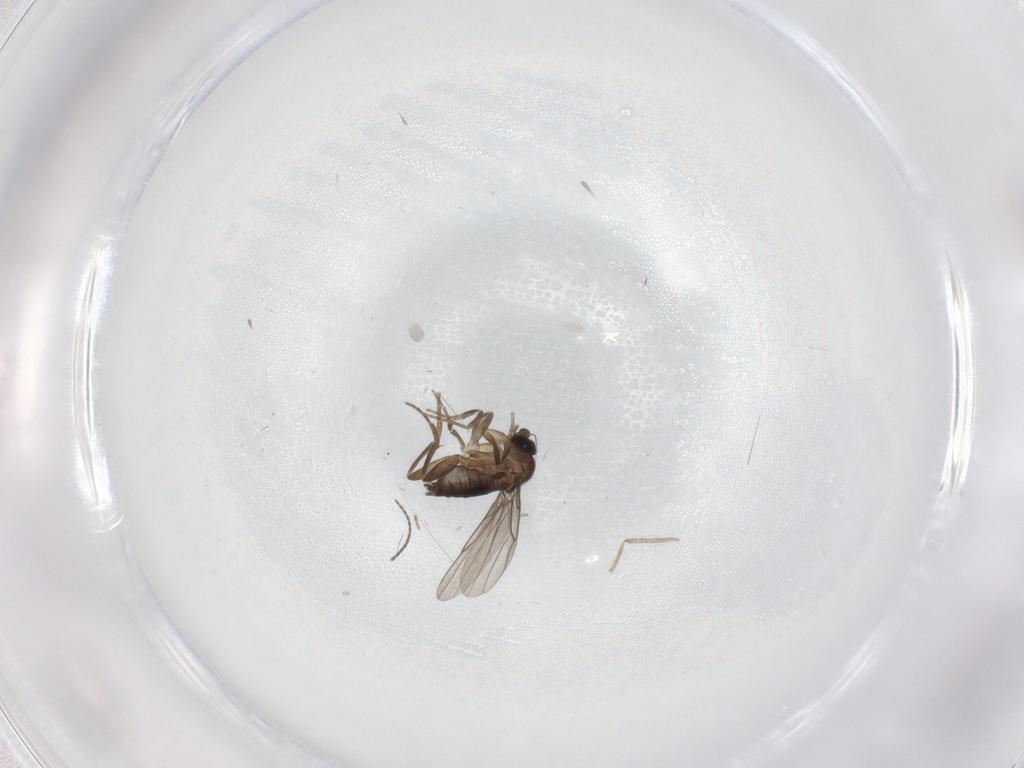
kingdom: Animalia
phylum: Arthropoda
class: Insecta
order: Diptera
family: Chironomidae
